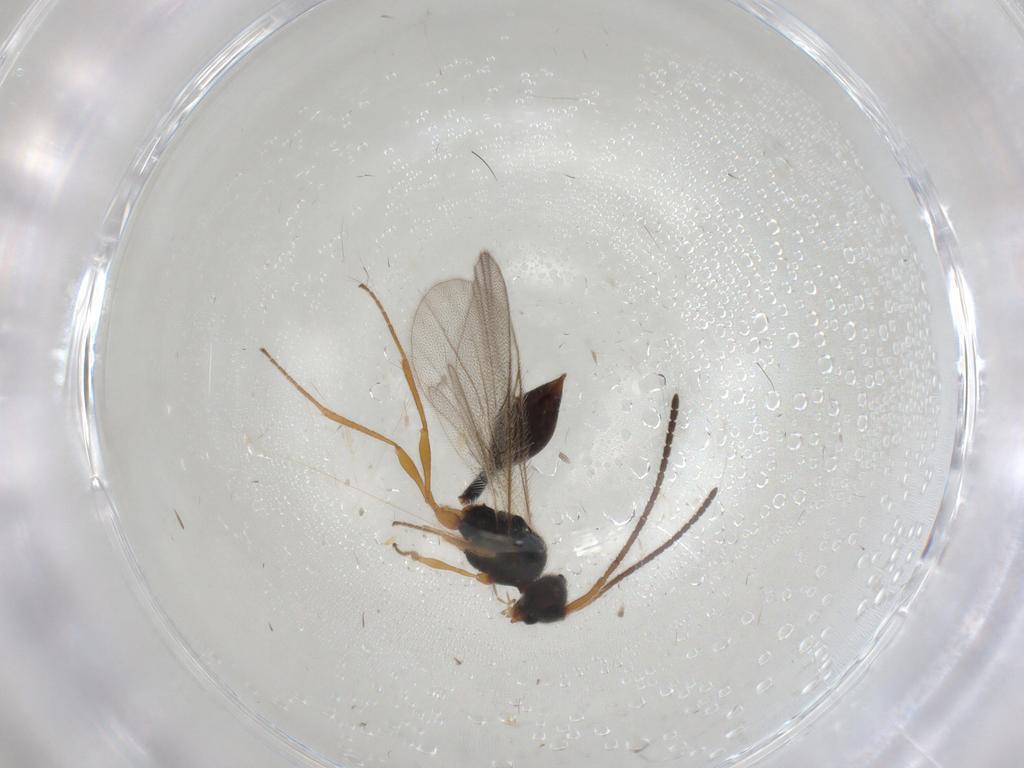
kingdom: Animalia
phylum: Arthropoda
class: Insecta
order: Hymenoptera
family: Diapriidae
